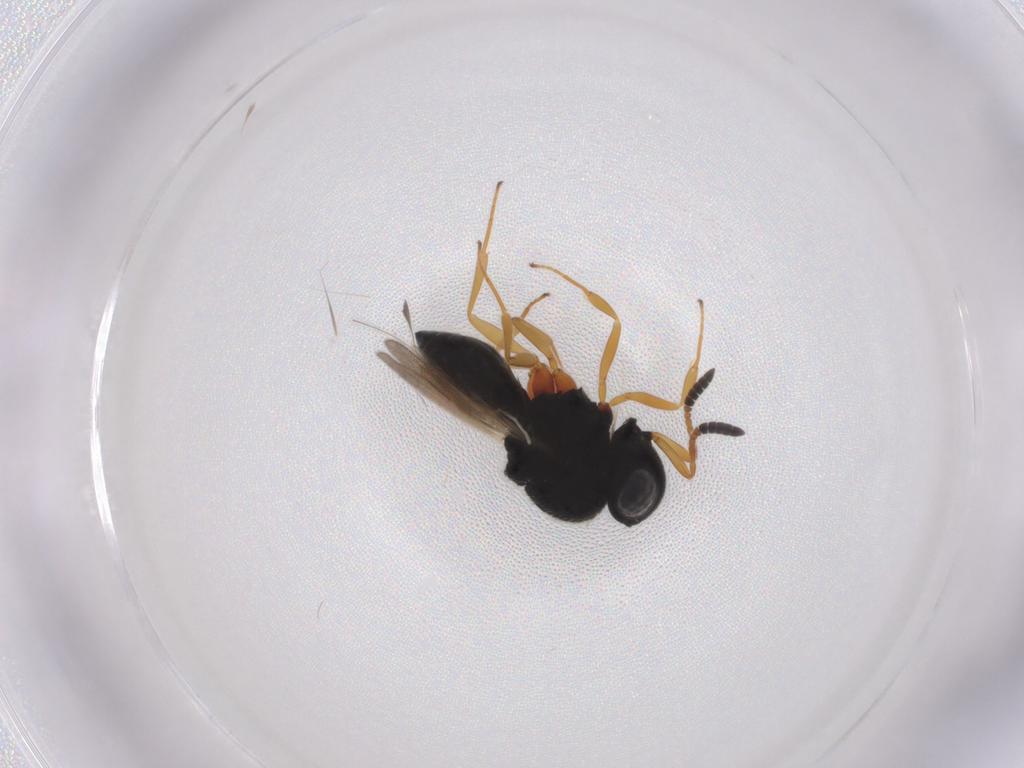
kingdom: Animalia
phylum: Arthropoda
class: Insecta
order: Hymenoptera
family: Scelionidae
